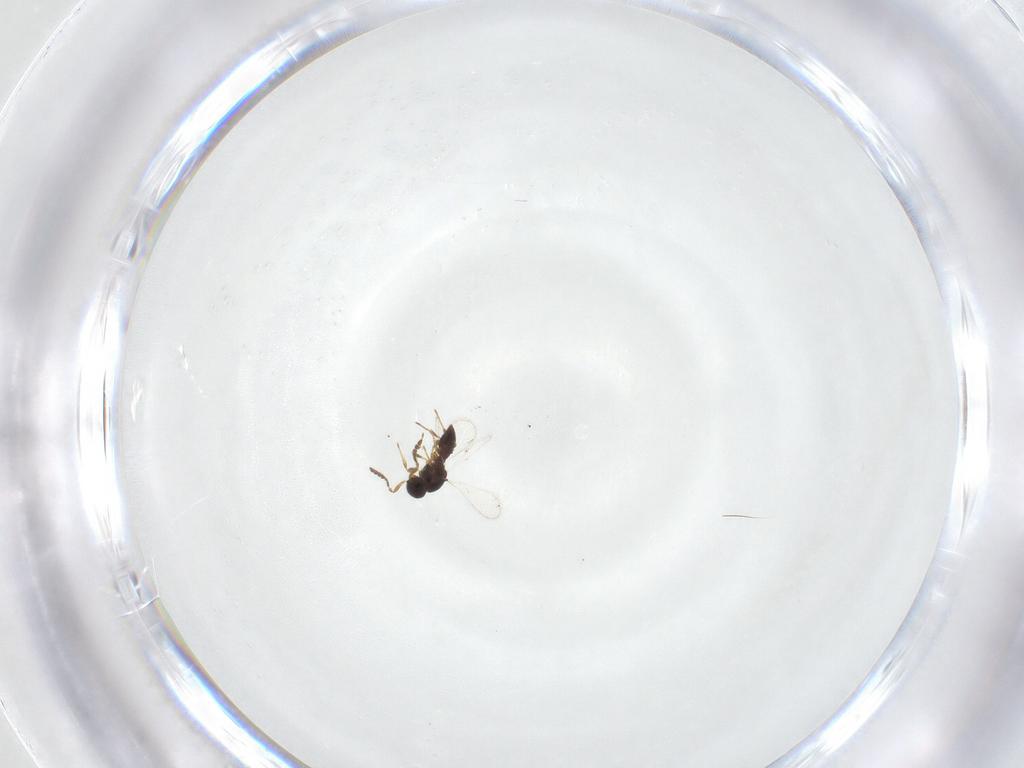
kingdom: Animalia
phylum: Arthropoda
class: Insecta
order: Hymenoptera
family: Platygastridae
